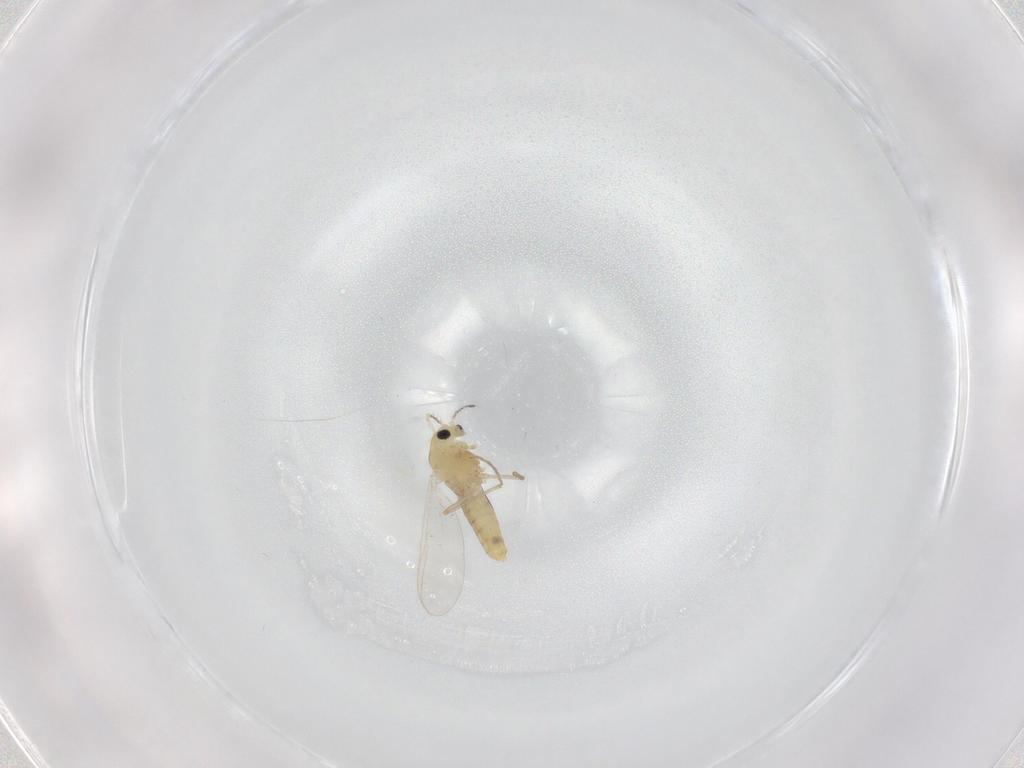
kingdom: Animalia
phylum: Arthropoda
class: Insecta
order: Diptera
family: Chironomidae
